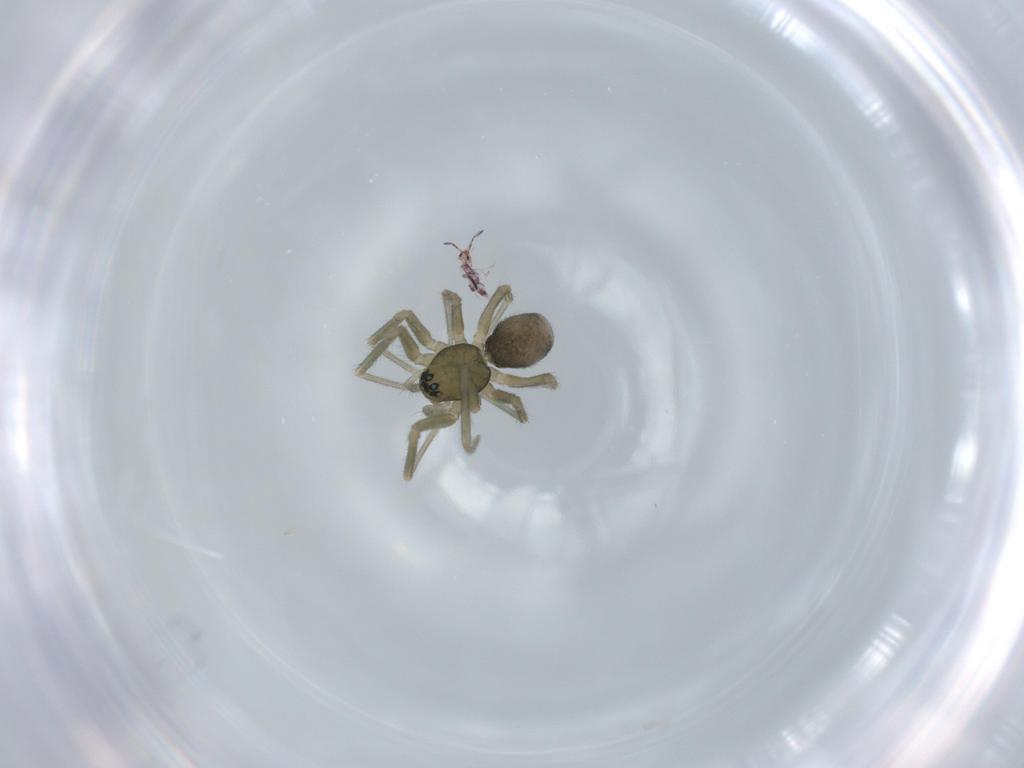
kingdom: Animalia
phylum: Arthropoda
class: Arachnida
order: Araneae
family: Linyphiidae
